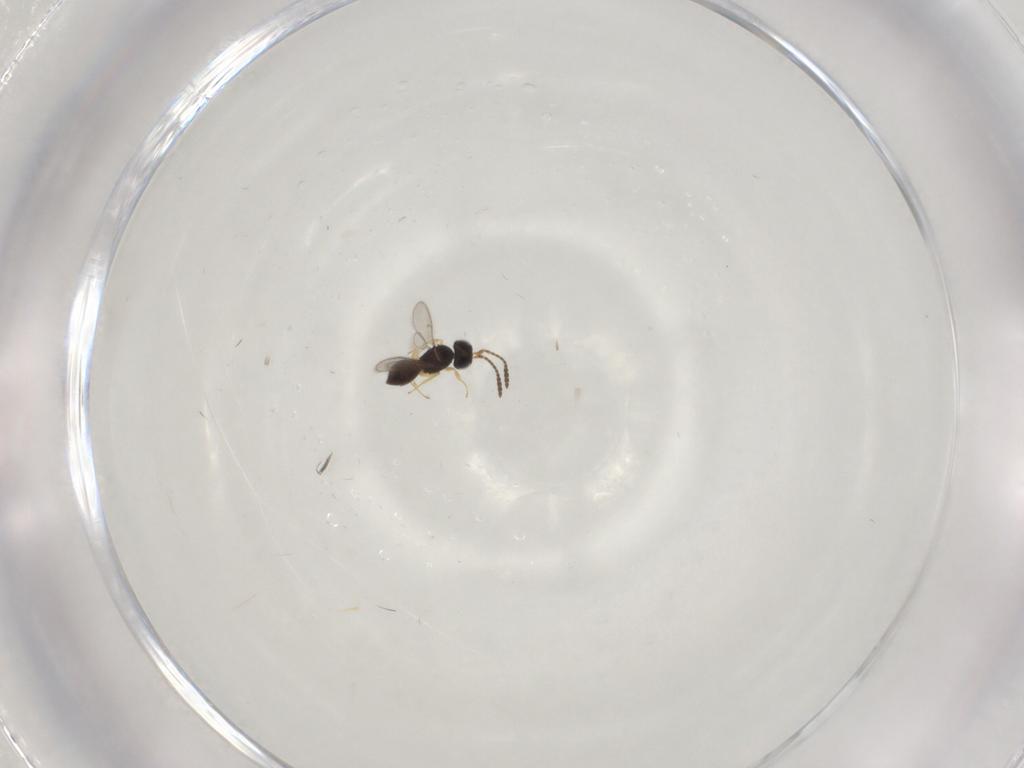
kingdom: Animalia
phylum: Arthropoda
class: Insecta
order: Hymenoptera
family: Scelionidae
